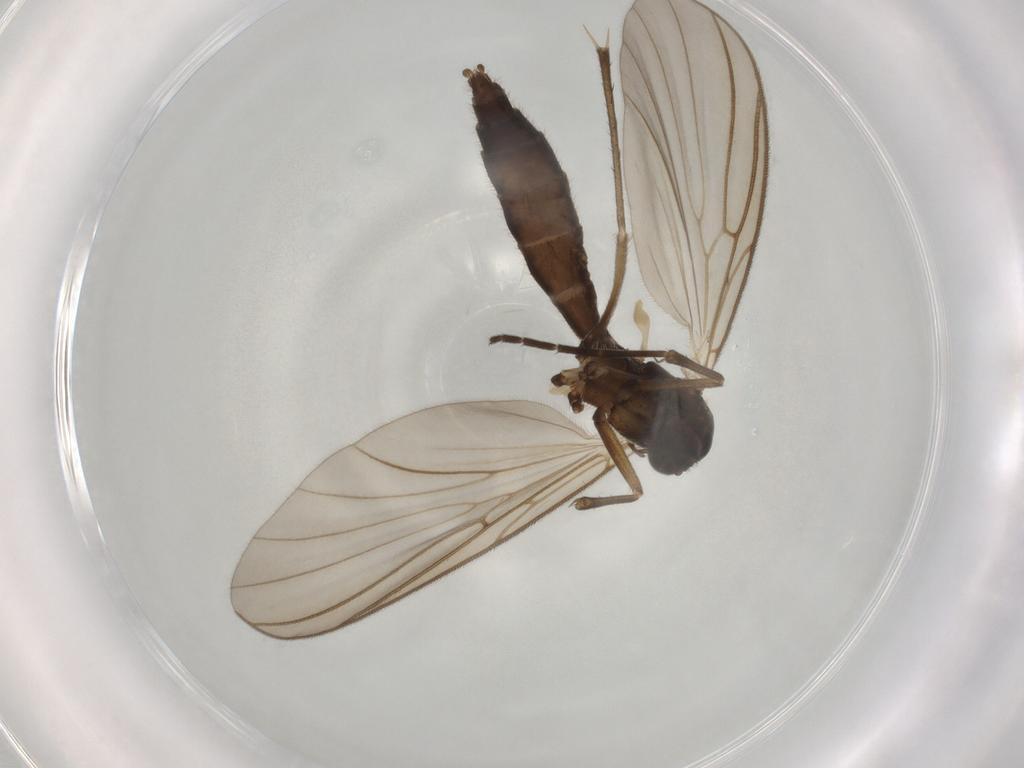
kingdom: Animalia
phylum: Arthropoda
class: Insecta
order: Diptera
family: Mycetophilidae
